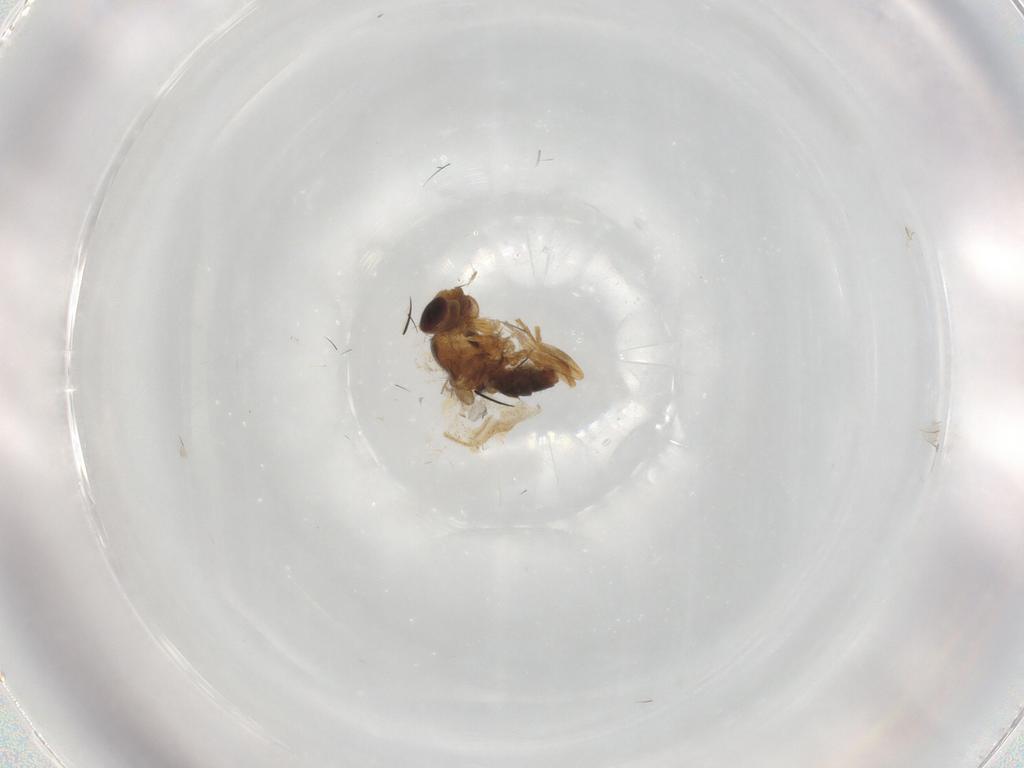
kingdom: Animalia
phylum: Arthropoda
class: Insecta
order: Diptera
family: Chloropidae
